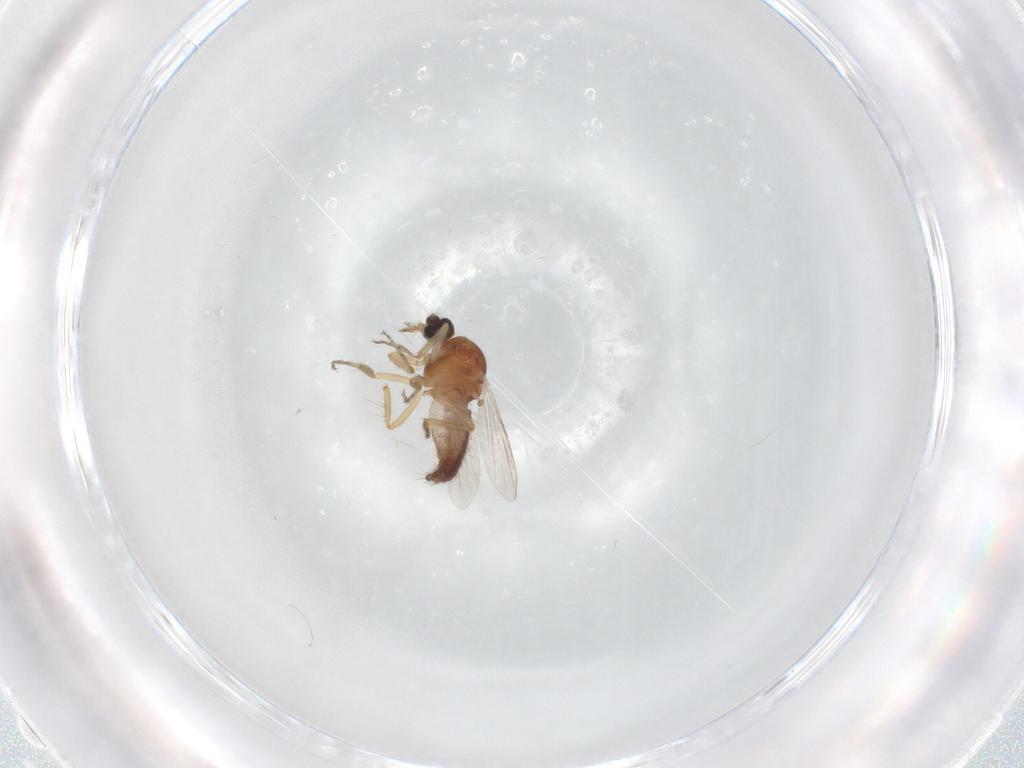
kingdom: Animalia
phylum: Arthropoda
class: Insecta
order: Diptera
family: Ceratopogonidae
